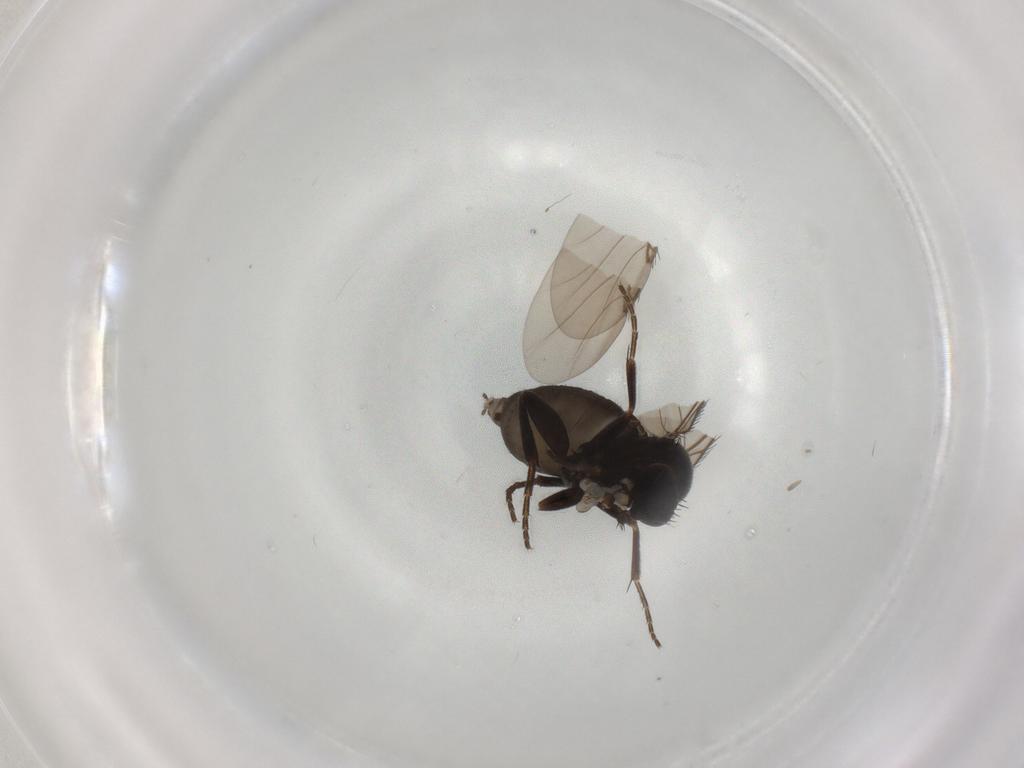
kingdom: Animalia
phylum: Arthropoda
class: Insecta
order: Diptera
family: Phoridae
